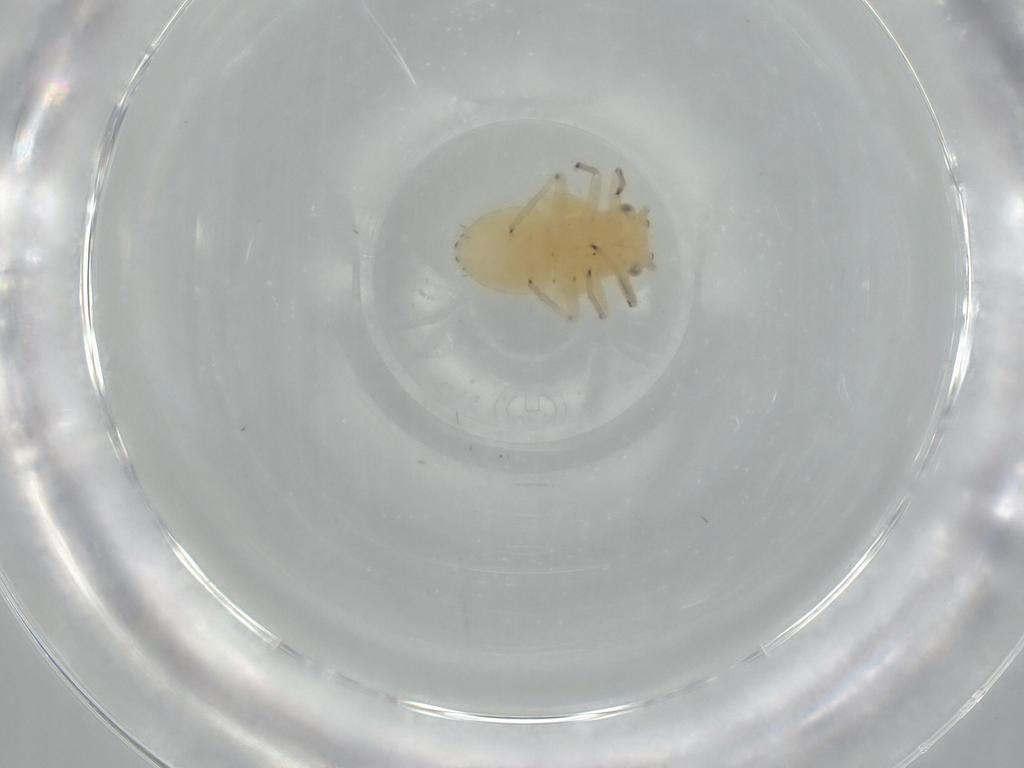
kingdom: Animalia
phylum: Arthropoda
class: Insecta
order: Hemiptera
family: Psyllidae
